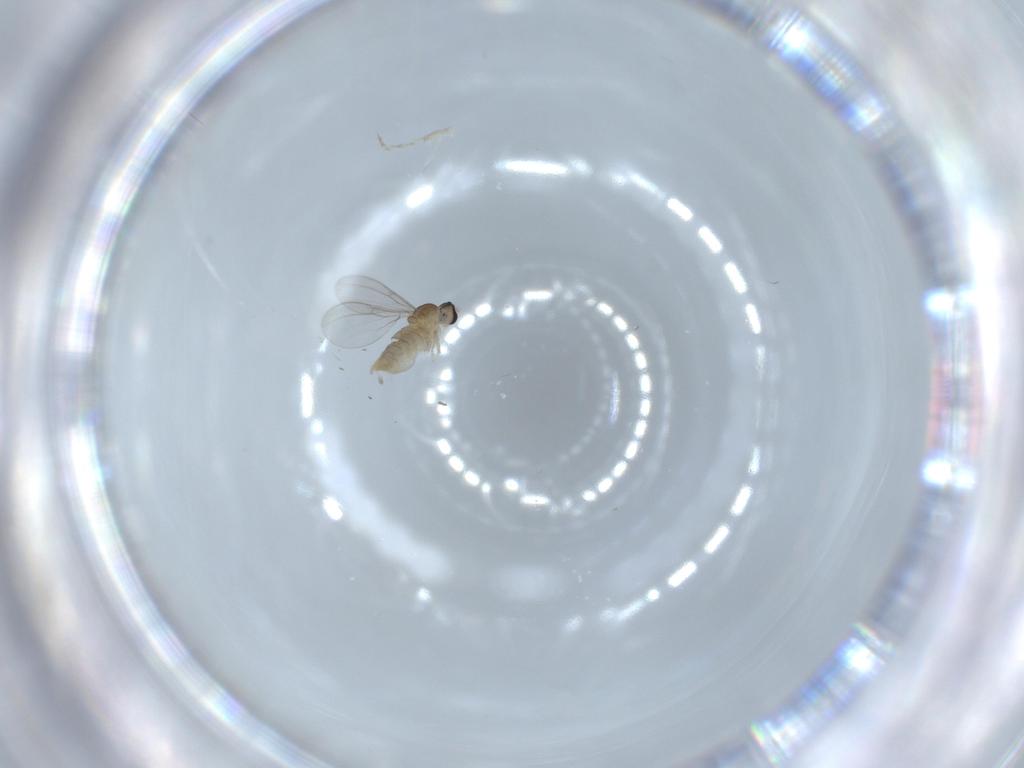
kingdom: Animalia
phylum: Arthropoda
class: Insecta
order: Diptera
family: Cecidomyiidae
